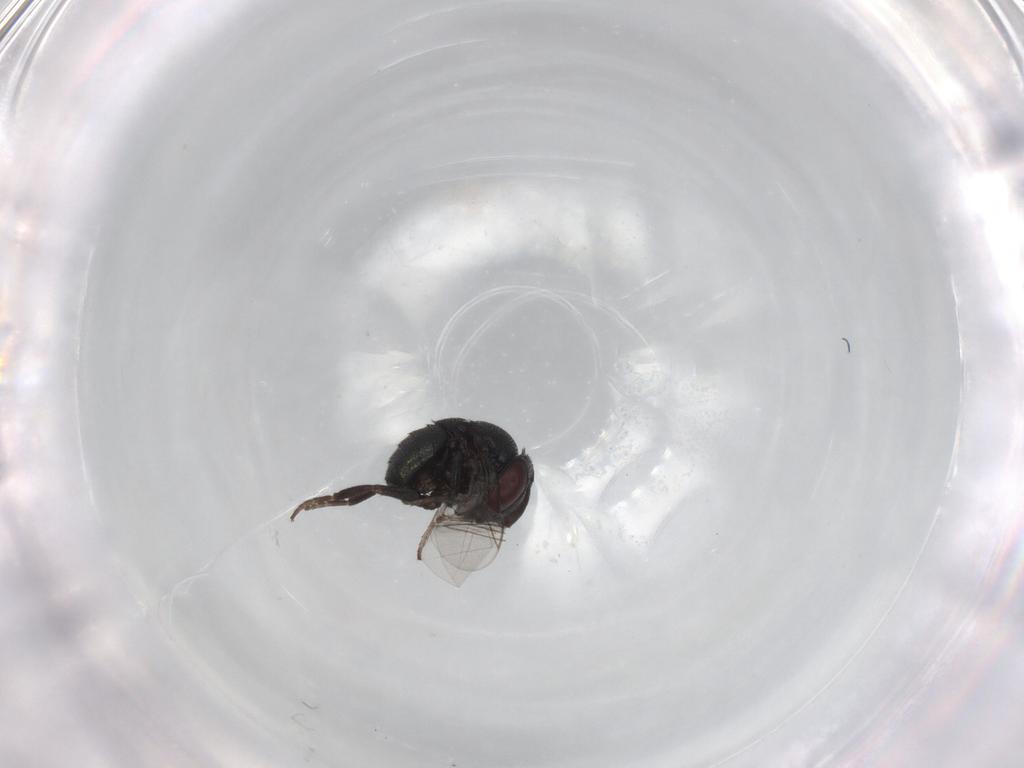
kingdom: Animalia
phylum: Arthropoda
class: Insecta
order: Diptera
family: Cryptochetidae
